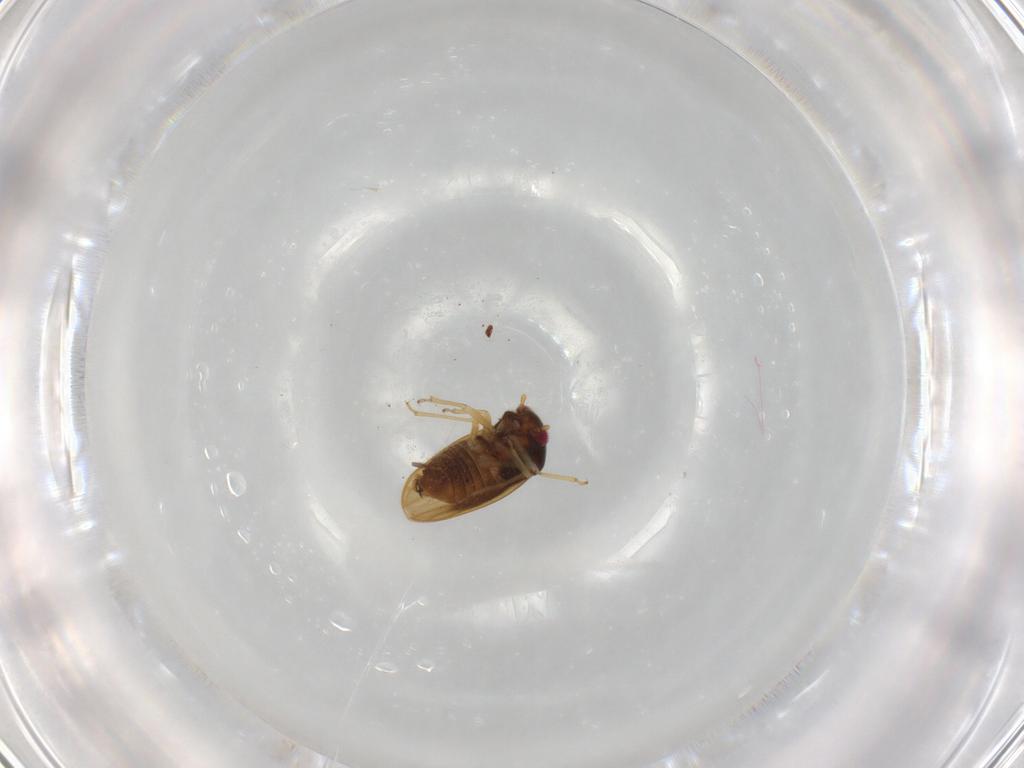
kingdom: Animalia
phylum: Arthropoda
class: Insecta
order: Hemiptera
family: Schizopteridae
